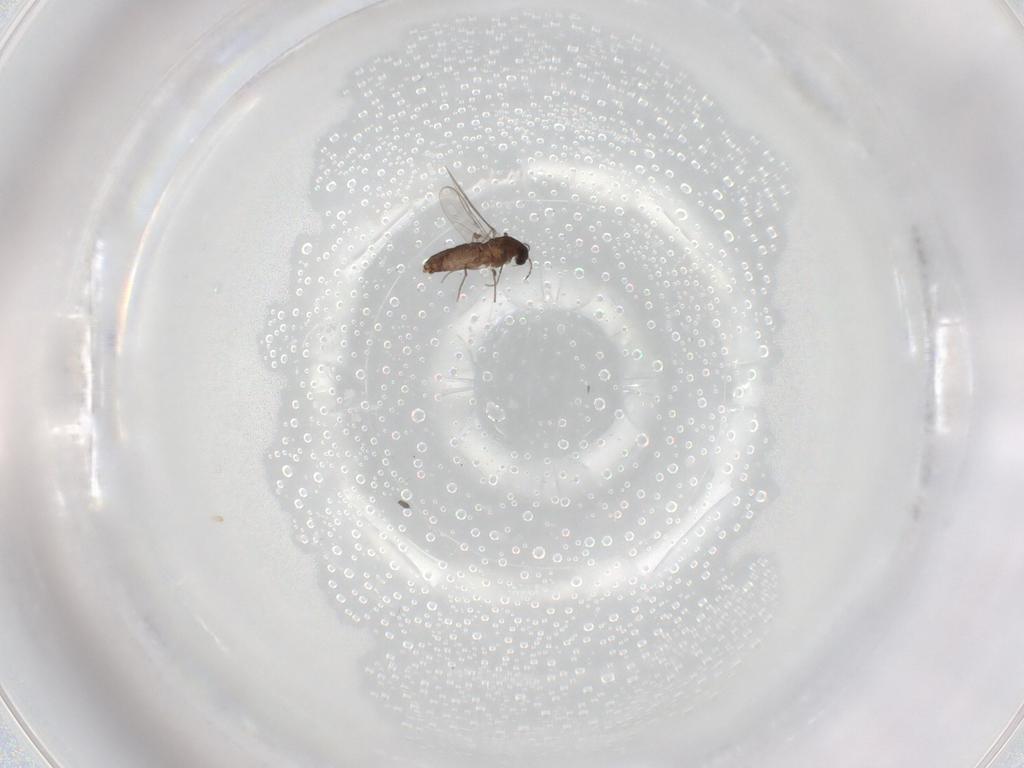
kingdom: Animalia
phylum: Arthropoda
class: Insecta
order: Diptera
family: Chironomidae
